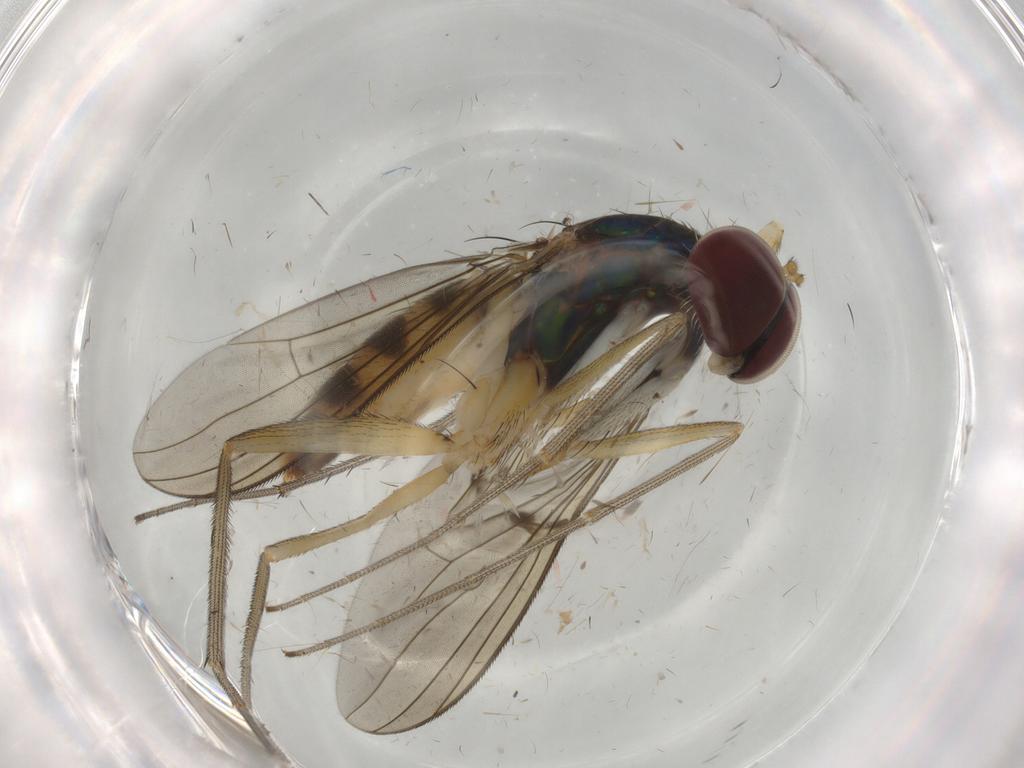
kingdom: Animalia
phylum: Arthropoda
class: Insecta
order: Diptera
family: Dolichopodidae
